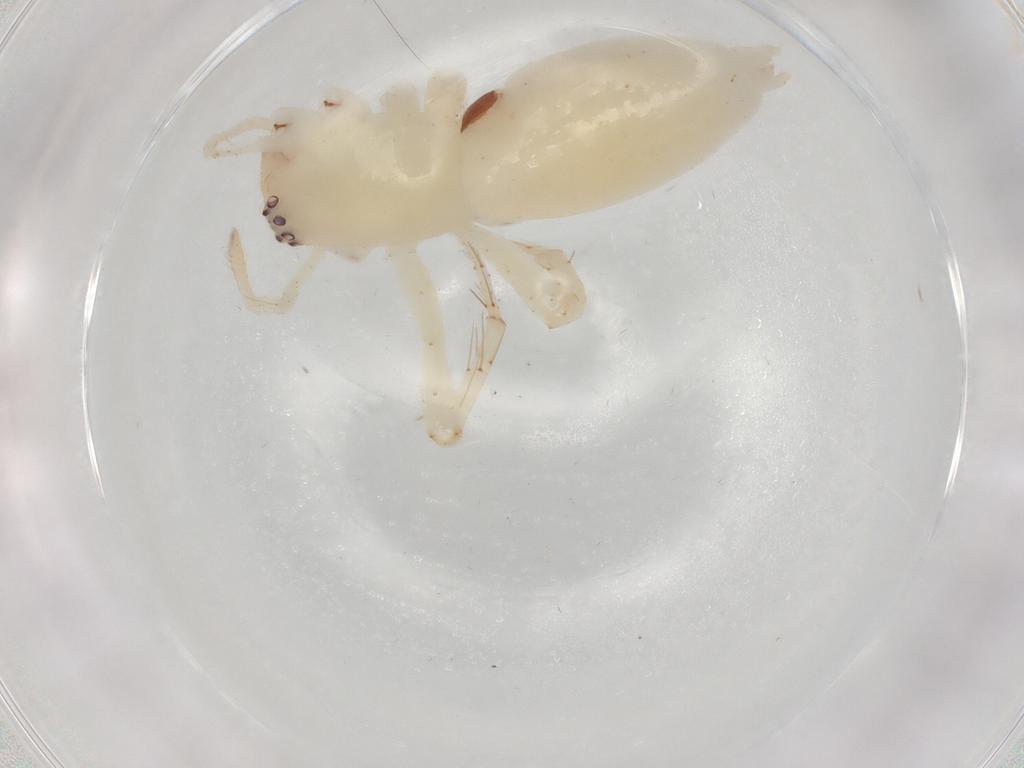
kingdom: Animalia
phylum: Arthropoda
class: Arachnida
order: Araneae
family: Anyphaenidae
